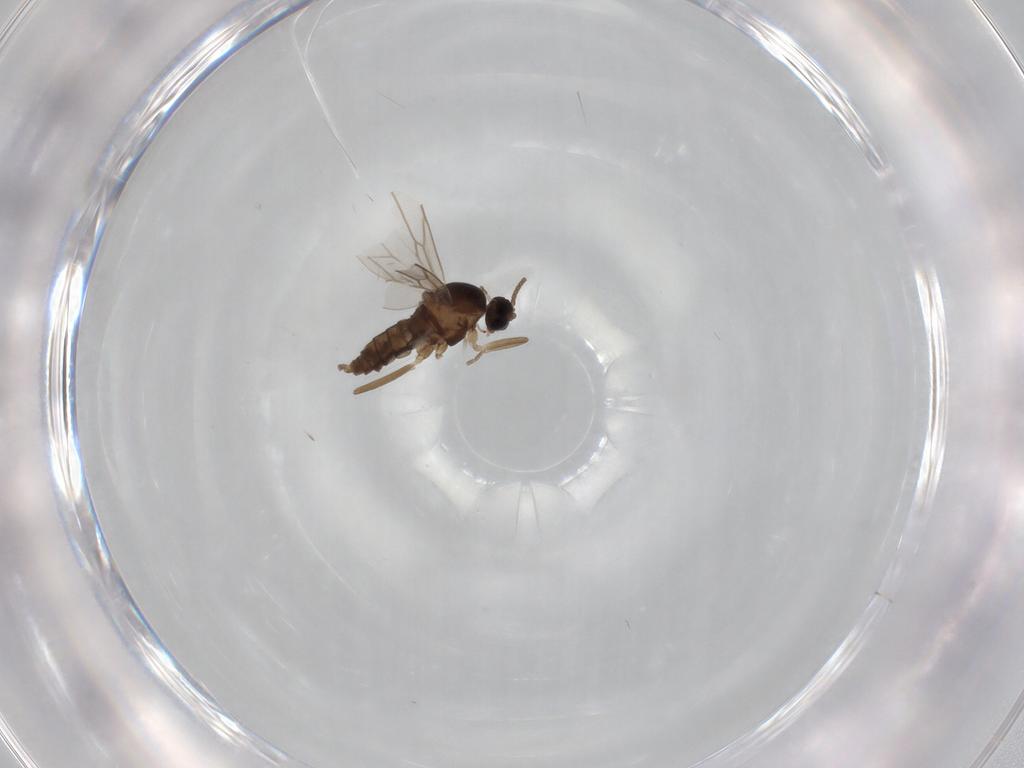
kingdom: Animalia
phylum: Arthropoda
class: Insecta
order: Diptera
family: Cecidomyiidae
